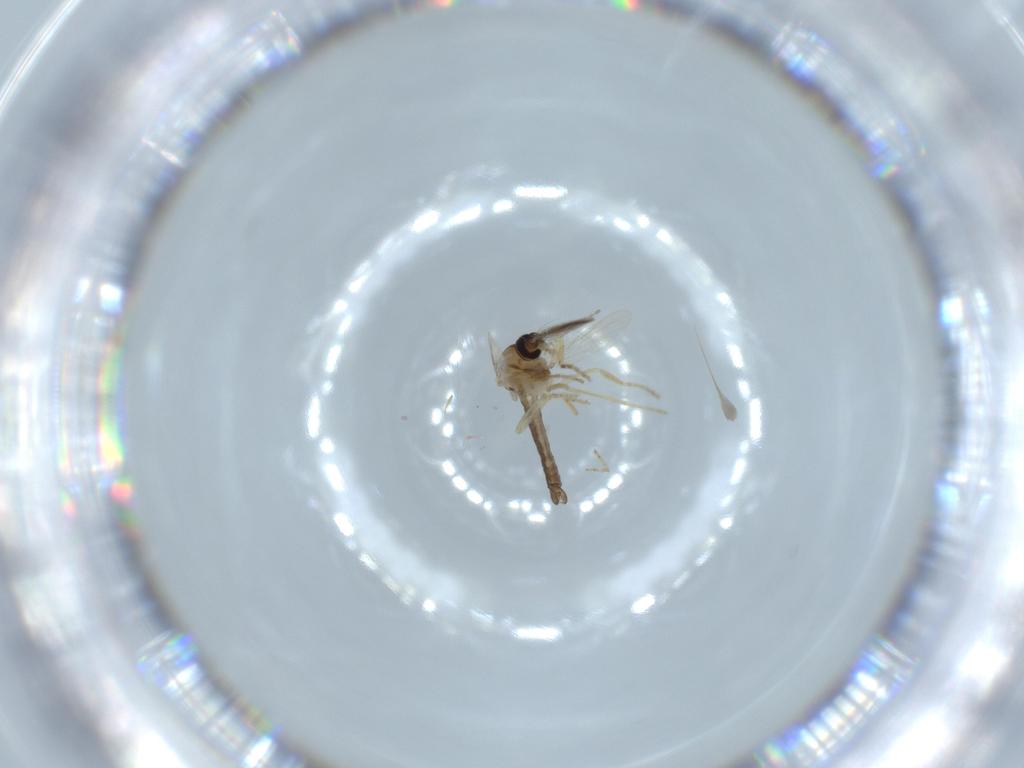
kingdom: Animalia
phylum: Arthropoda
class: Insecta
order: Diptera
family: Ceratopogonidae
